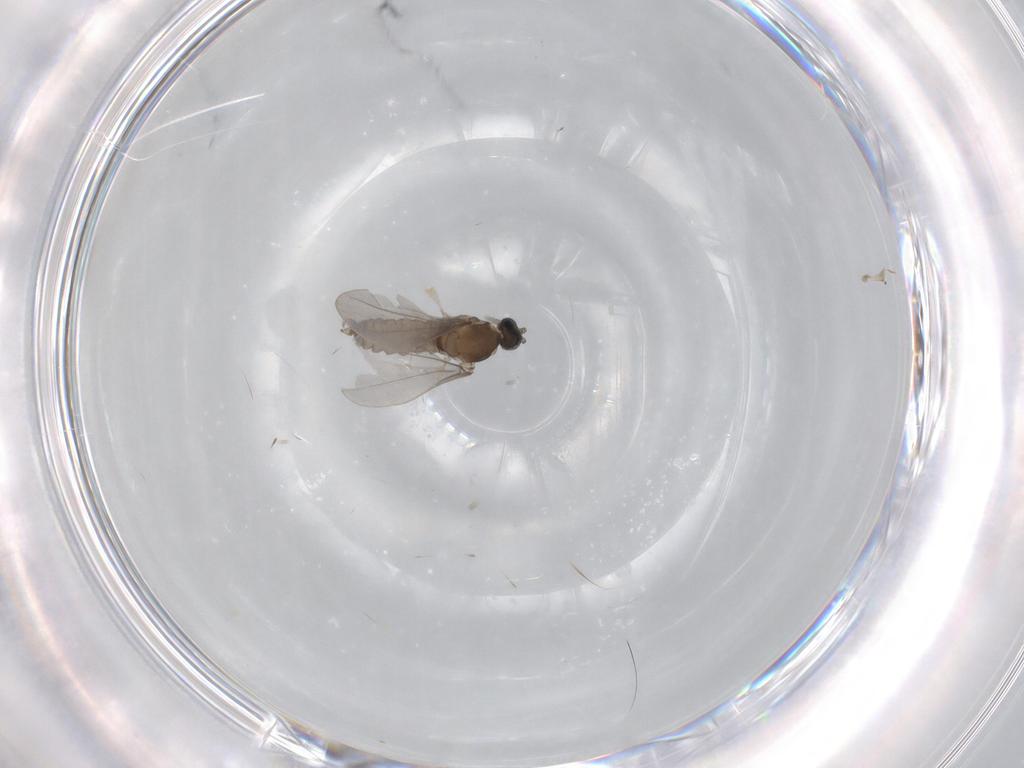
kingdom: Animalia
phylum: Arthropoda
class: Insecta
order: Diptera
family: Cecidomyiidae
